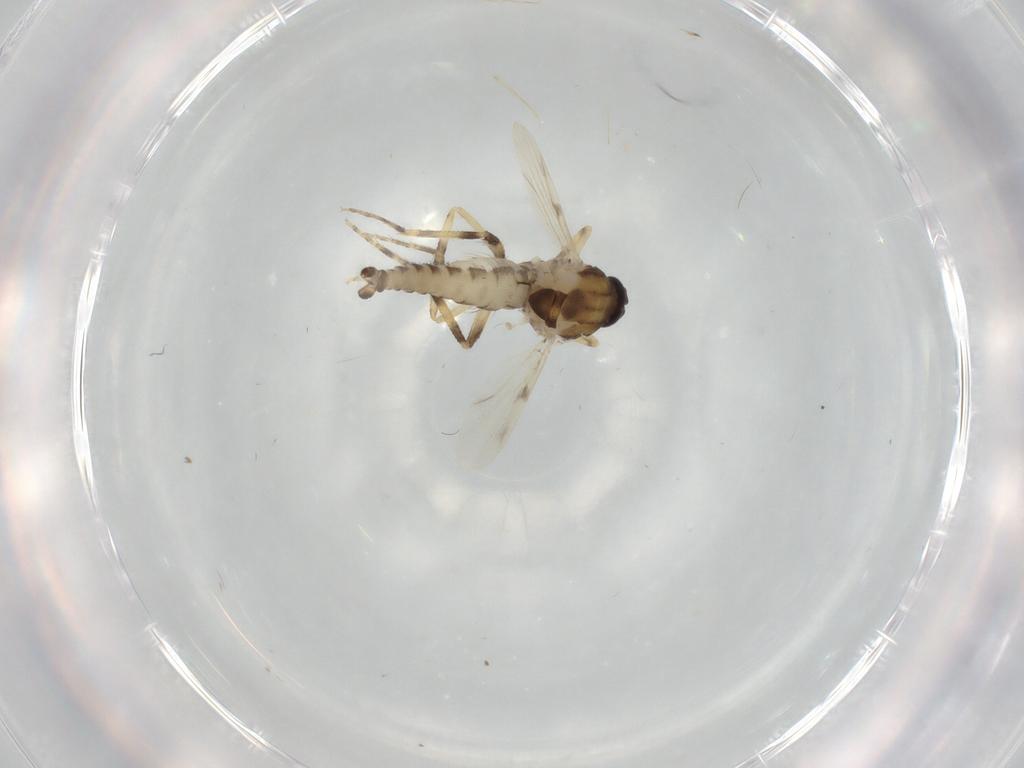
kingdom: Animalia
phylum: Arthropoda
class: Insecta
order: Diptera
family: Ceratopogonidae
